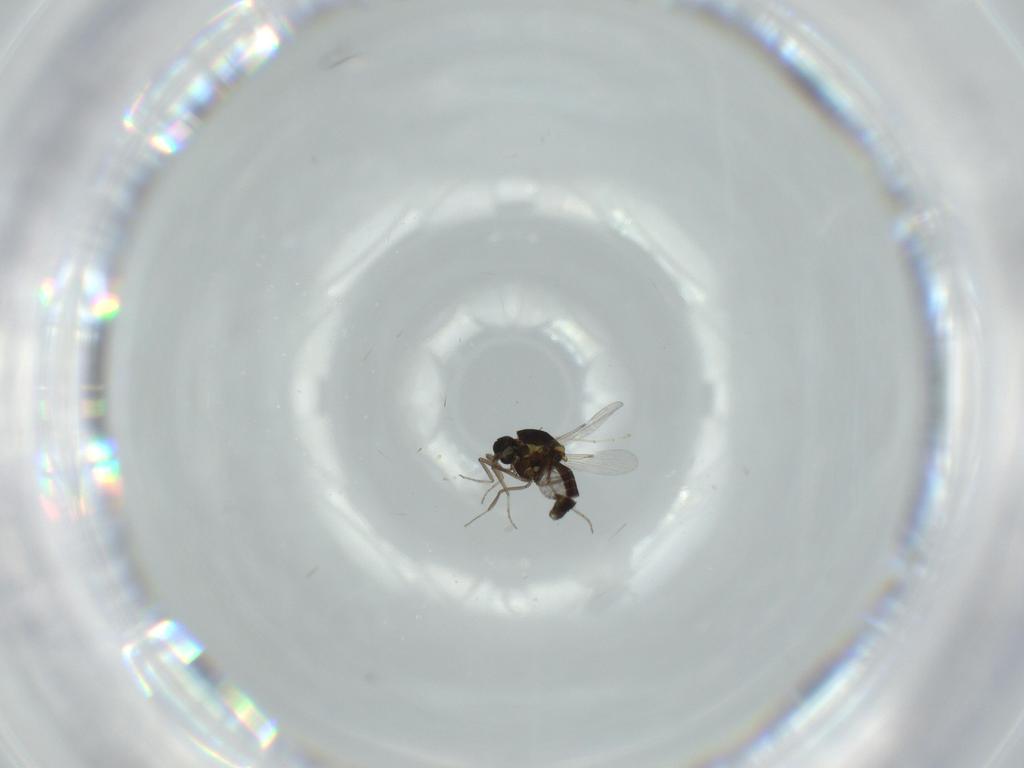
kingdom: Animalia
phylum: Arthropoda
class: Insecta
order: Diptera
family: Ceratopogonidae
